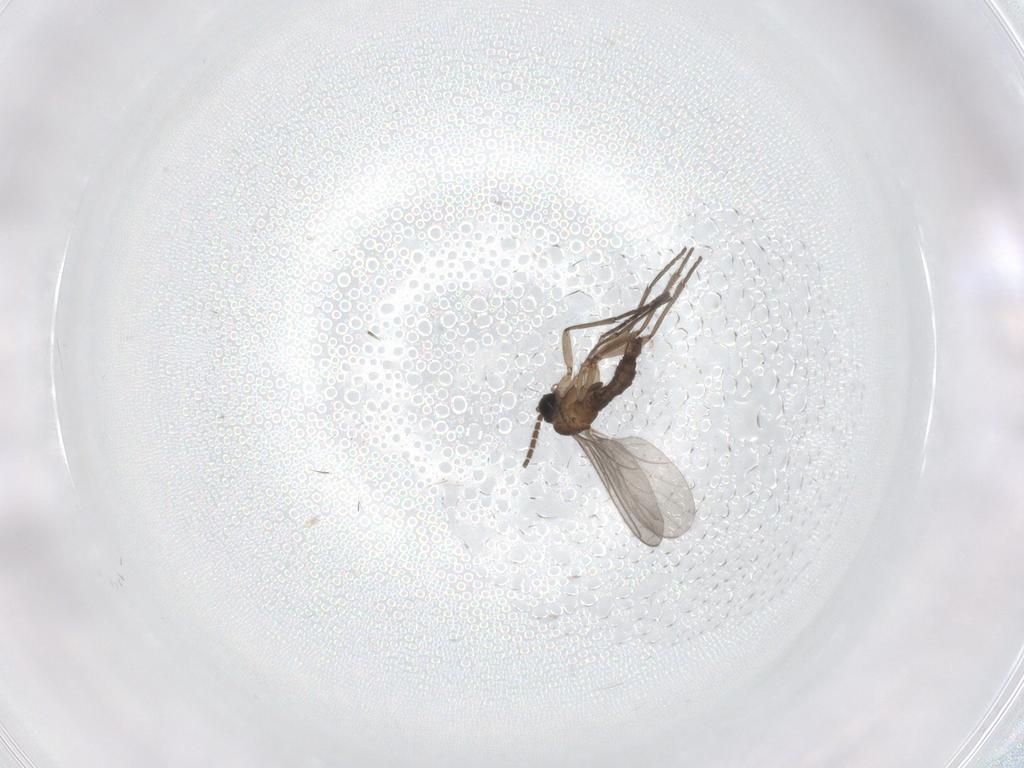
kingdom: Animalia
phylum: Arthropoda
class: Insecta
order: Diptera
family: Sciaridae
